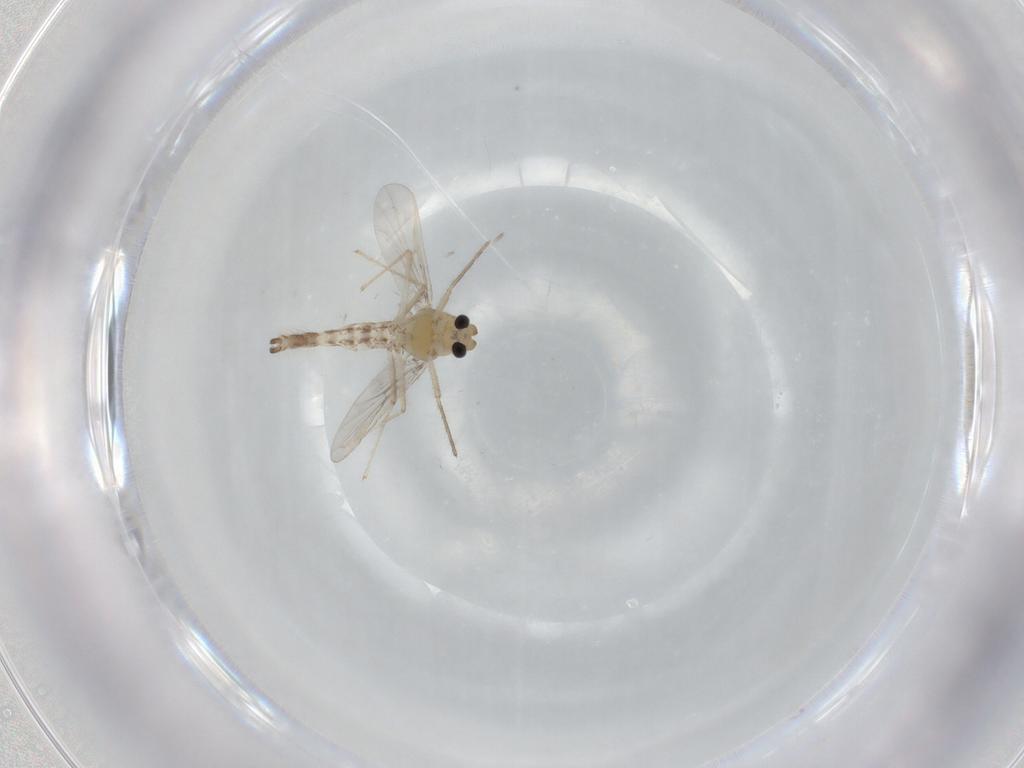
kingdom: Animalia
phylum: Arthropoda
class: Insecta
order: Diptera
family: Chironomidae
